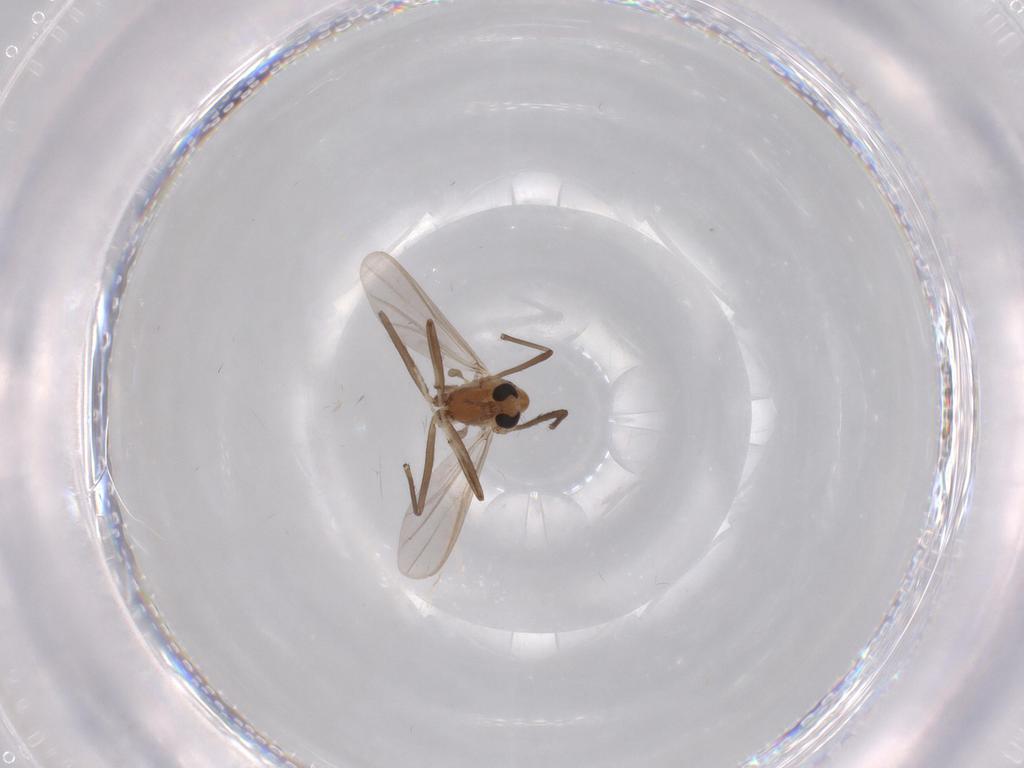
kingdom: Animalia
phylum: Arthropoda
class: Insecta
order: Diptera
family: Chironomidae
